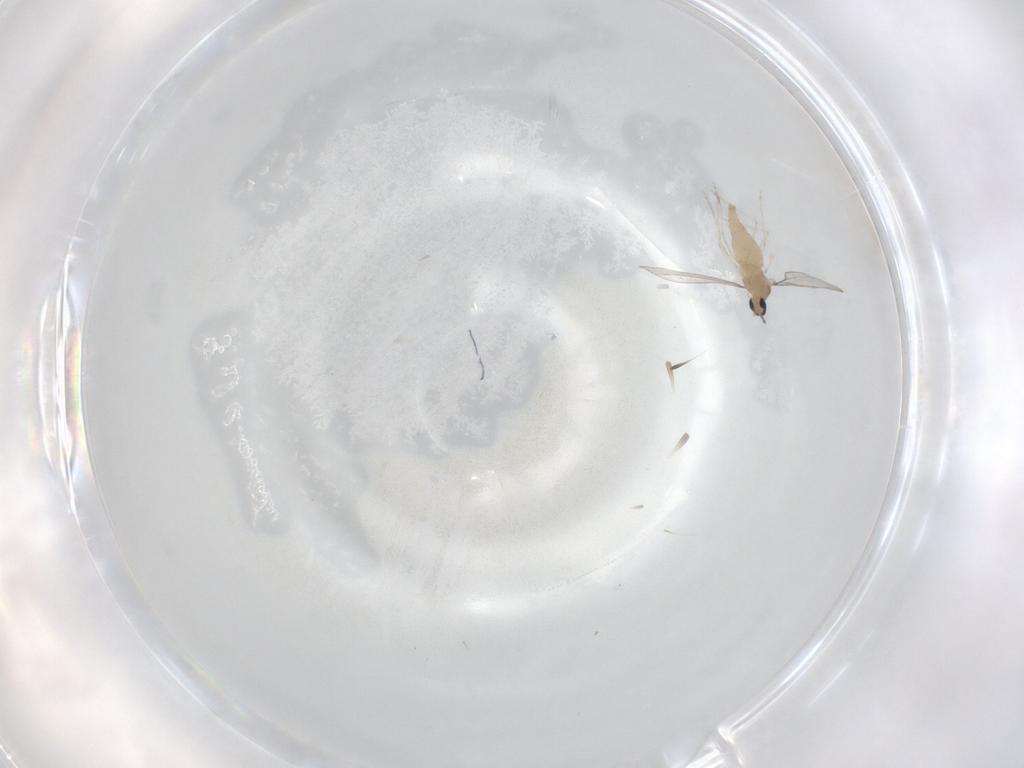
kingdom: Animalia
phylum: Arthropoda
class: Insecta
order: Diptera
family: Cecidomyiidae
